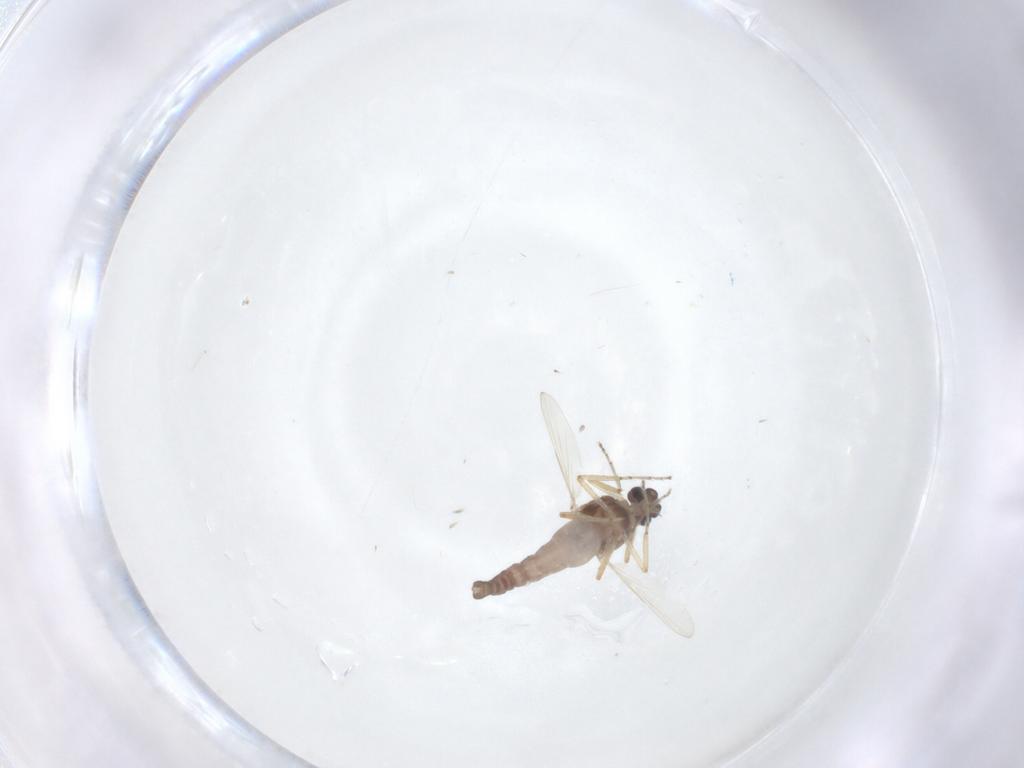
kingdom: Animalia
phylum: Arthropoda
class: Insecta
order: Diptera
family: Ceratopogonidae
